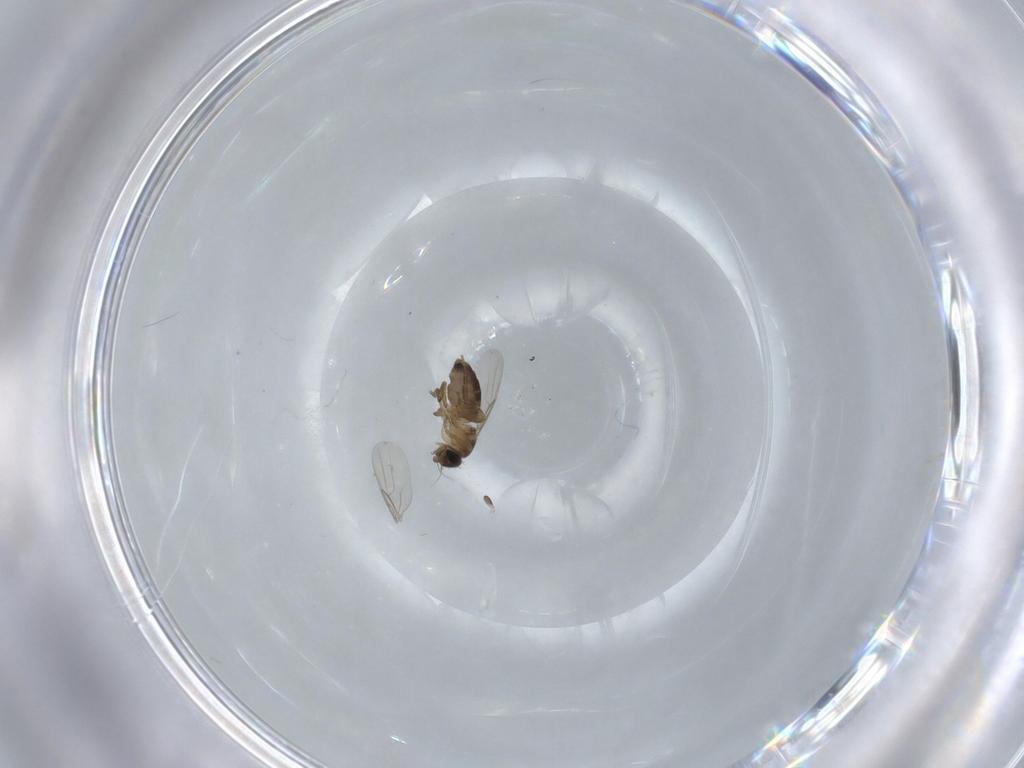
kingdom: Animalia
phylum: Arthropoda
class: Insecta
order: Diptera
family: Phoridae
